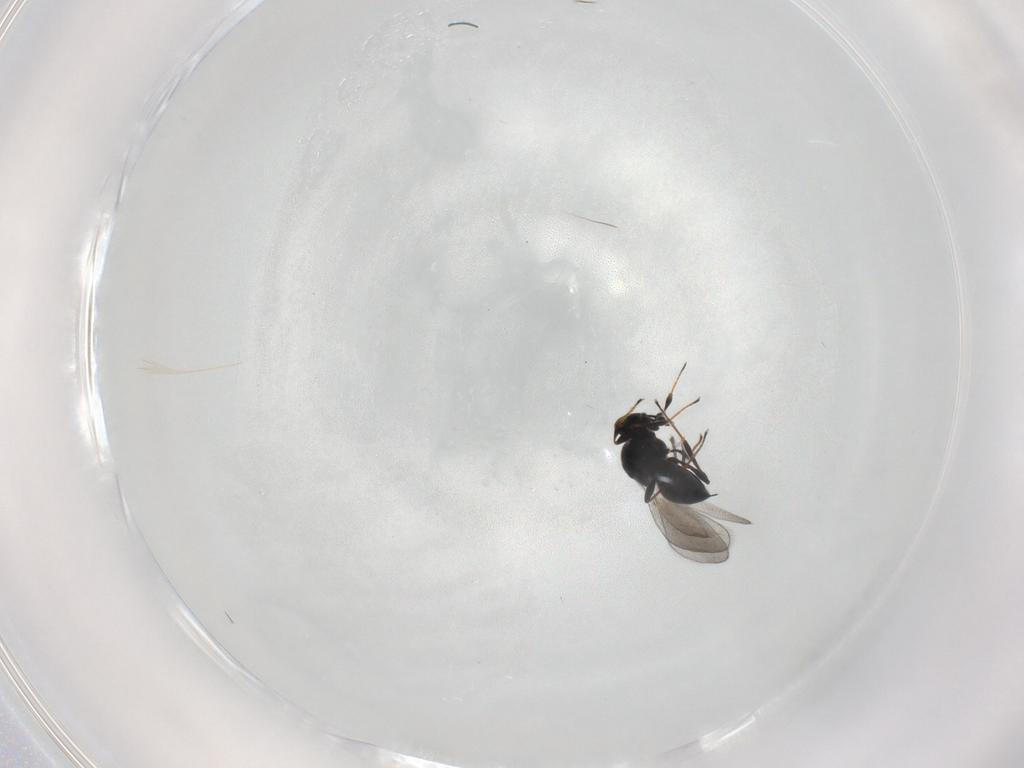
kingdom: Animalia
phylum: Arthropoda
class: Insecta
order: Hymenoptera
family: Platygastridae
